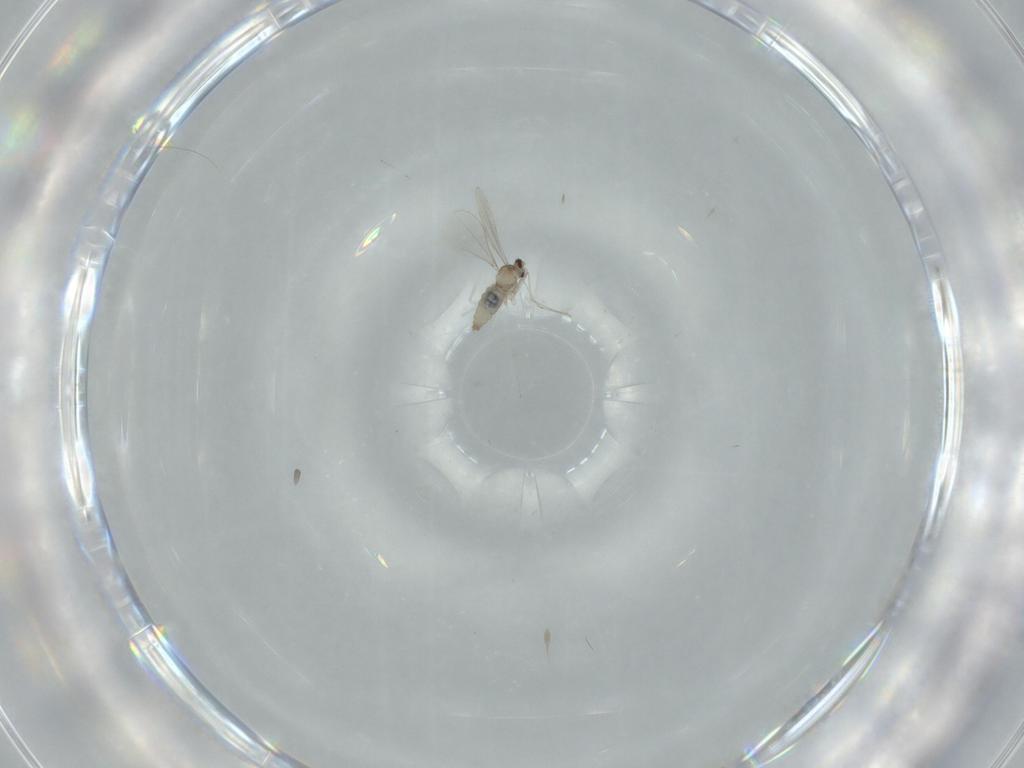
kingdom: Animalia
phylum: Arthropoda
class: Insecta
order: Diptera
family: Cecidomyiidae
